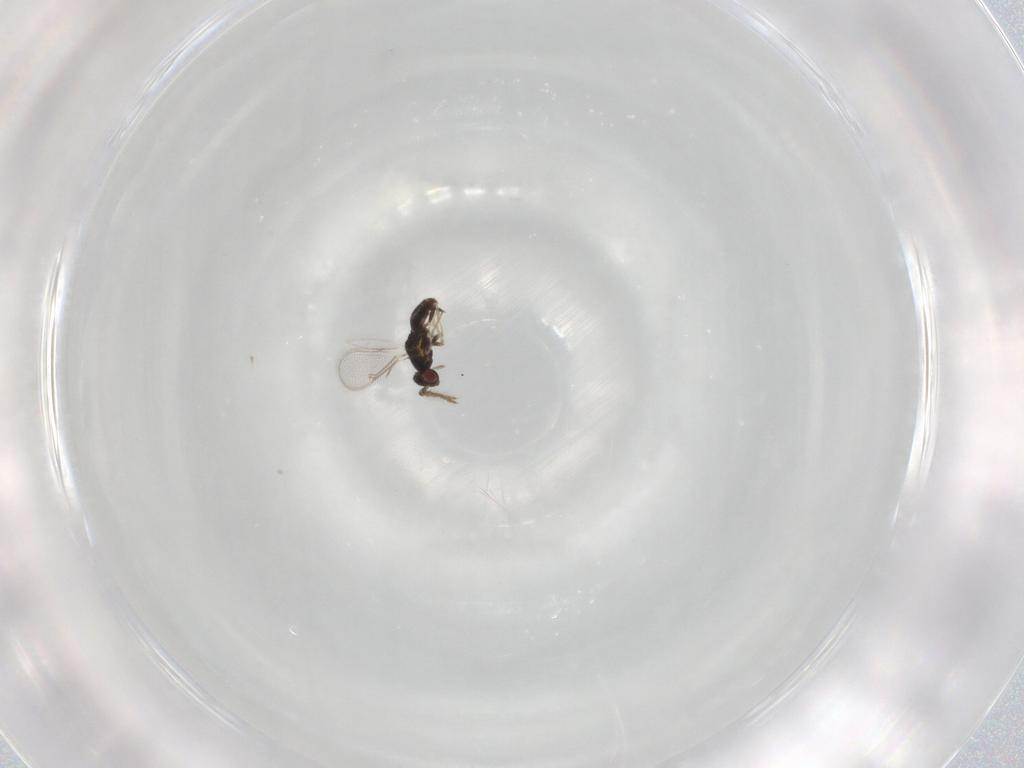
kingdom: Animalia
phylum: Arthropoda
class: Insecta
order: Hymenoptera
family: Eulophidae
